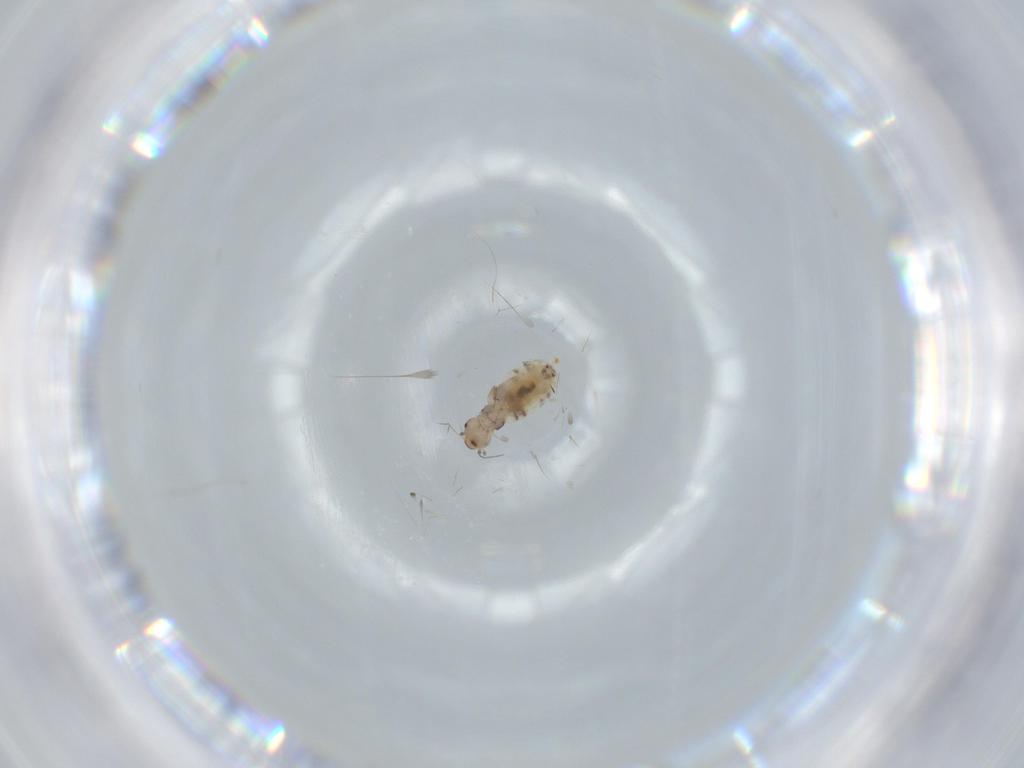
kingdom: Animalia
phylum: Arthropoda
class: Insecta
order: Psocodea
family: Liposcelididae
